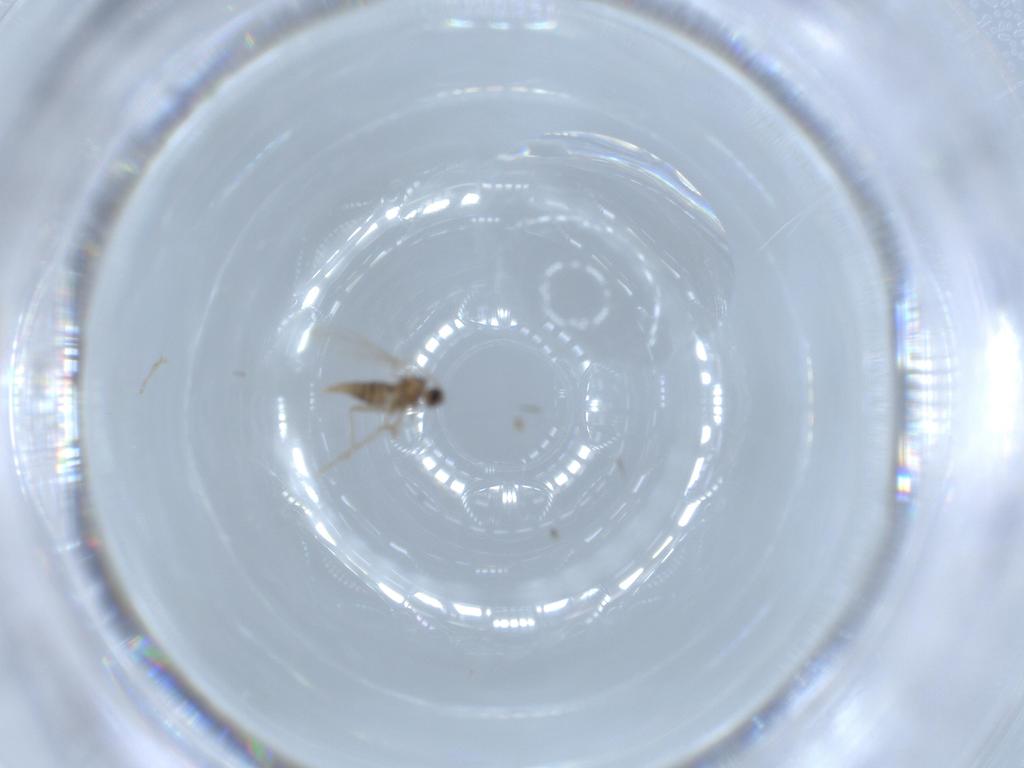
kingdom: Animalia
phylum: Arthropoda
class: Insecta
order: Diptera
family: Cecidomyiidae
